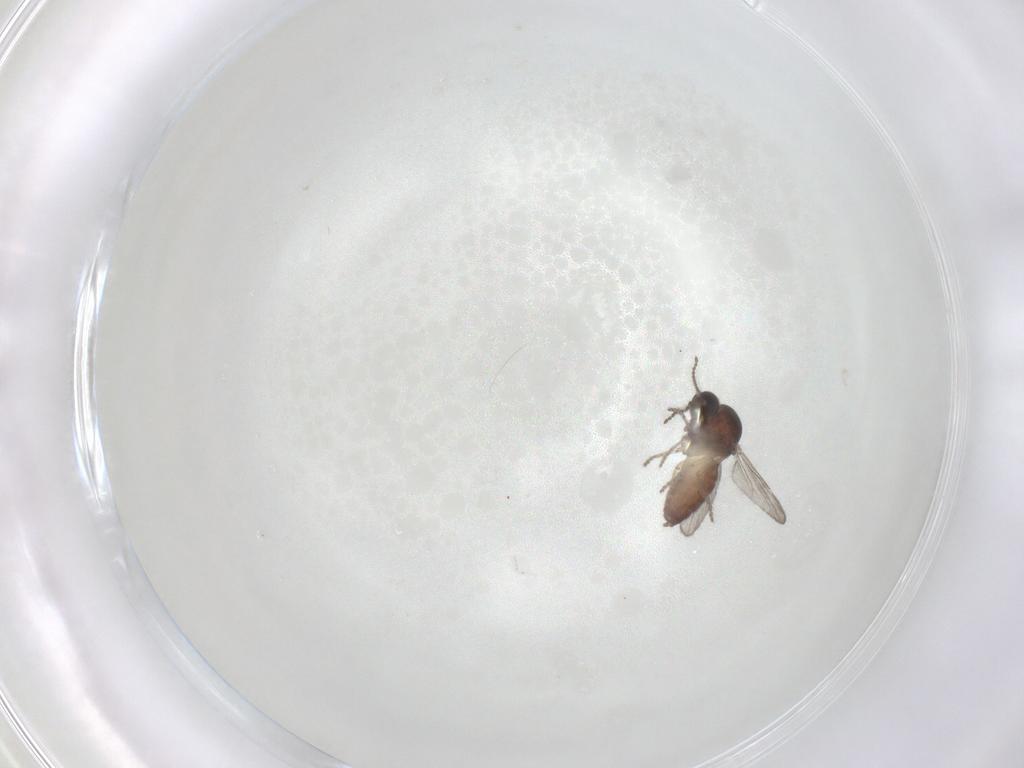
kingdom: Animalia
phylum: Arthropoda
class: Insecta
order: Diptera
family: Ceratopogonidae
